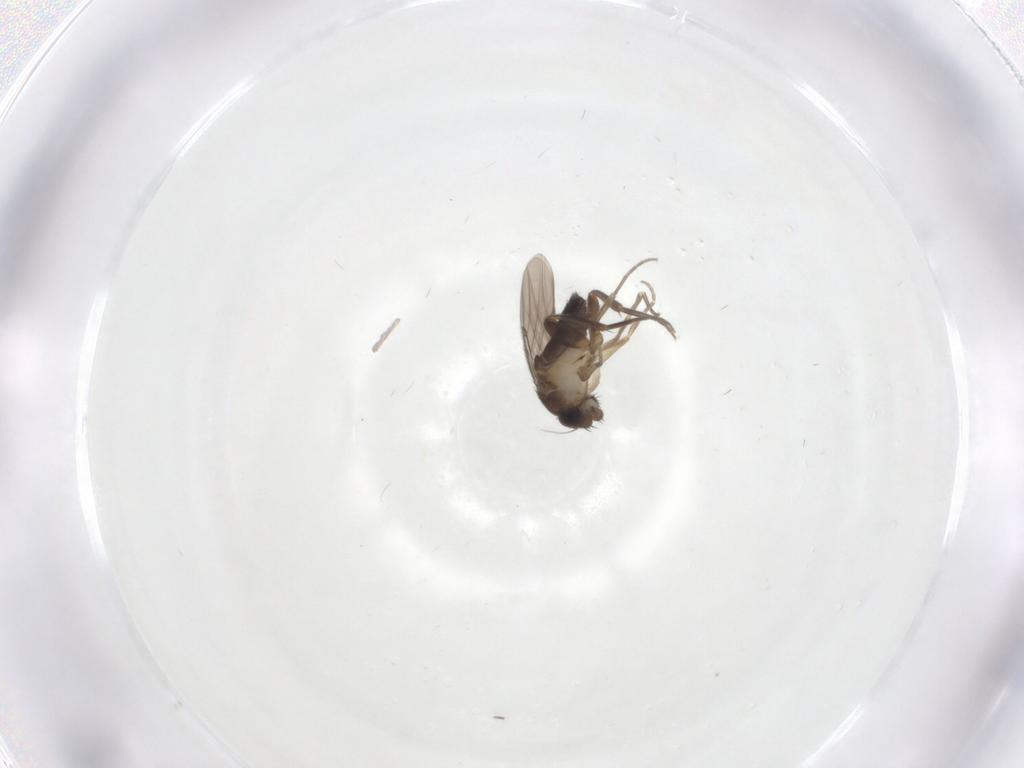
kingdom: Animalia
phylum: Arthropoda
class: Insecta
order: Diptera
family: Phoridae
